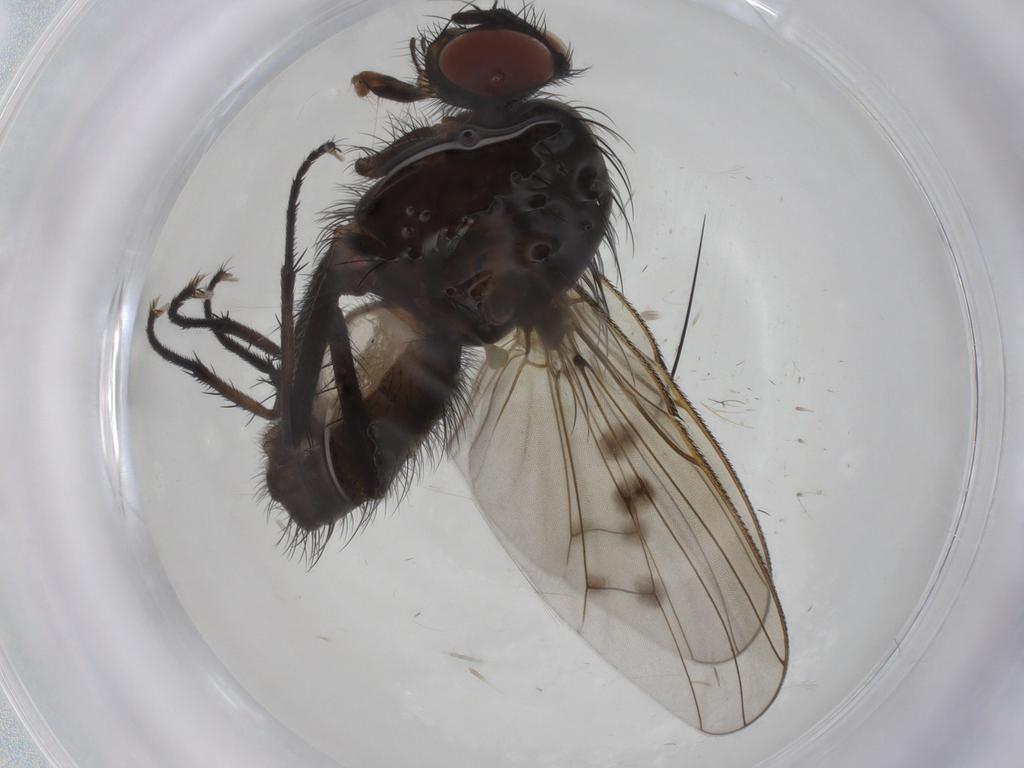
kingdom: Animalia
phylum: Arthropoda
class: Insecta
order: Diptera
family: Anthomyiidae
